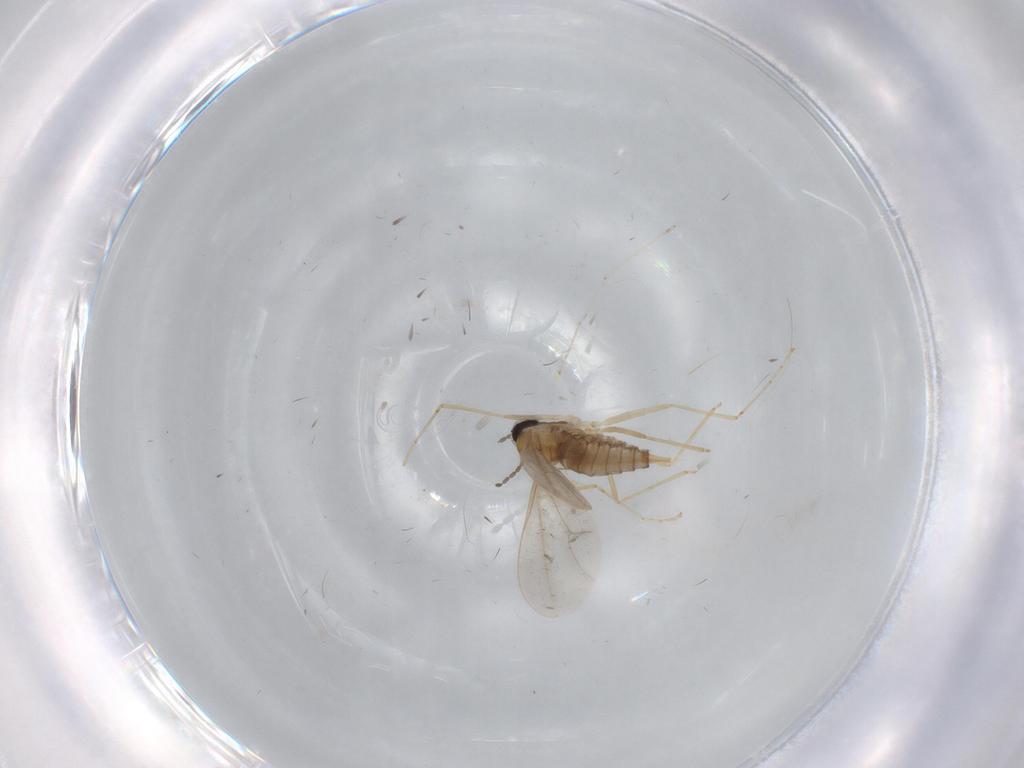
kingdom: Animalia
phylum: Arthropoda
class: Insecta
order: Diptera
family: Cecidomyiidae
